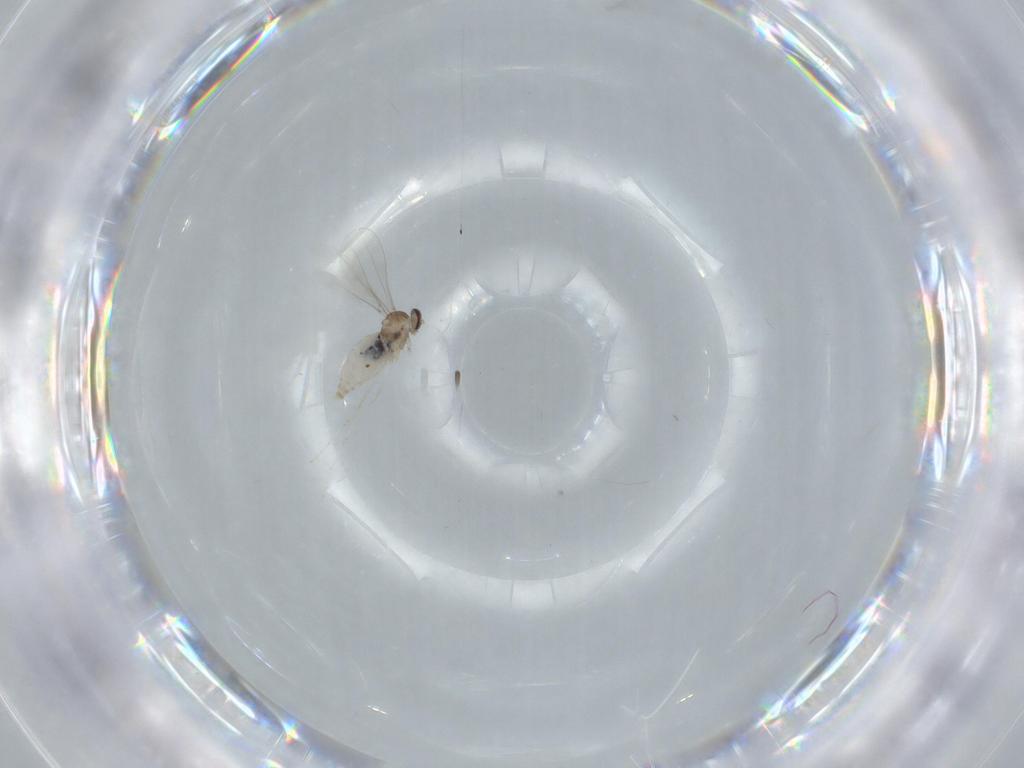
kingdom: Animalia
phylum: Arthropoda
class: Insecta
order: Diptera
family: Cecidomyiidae
